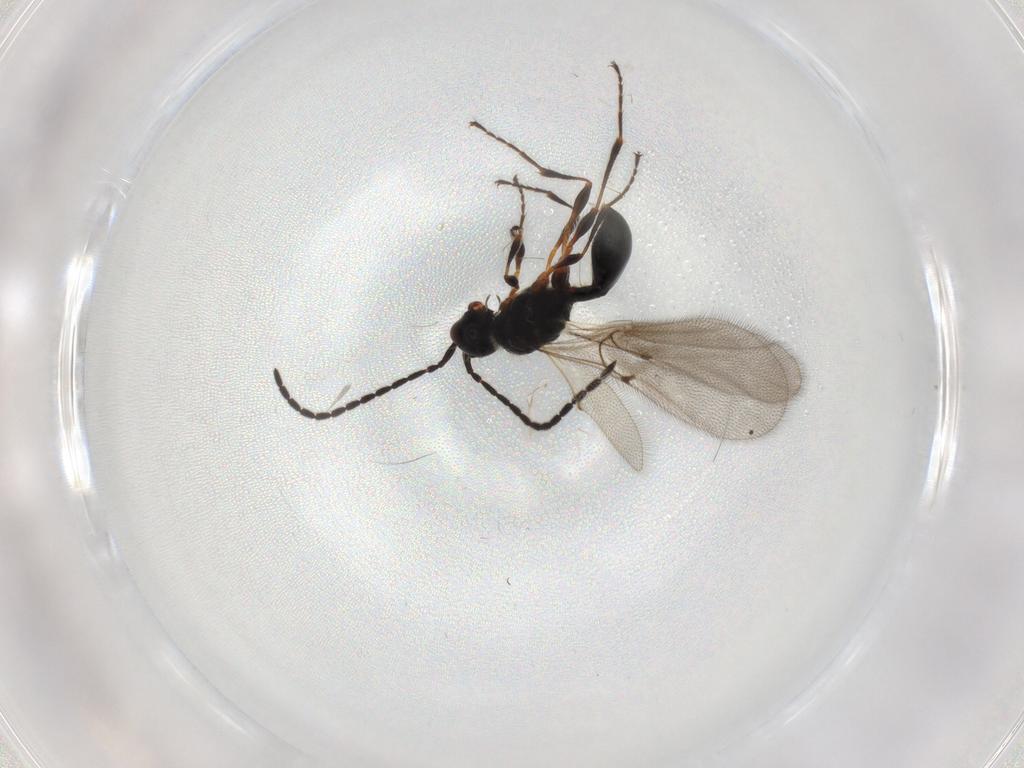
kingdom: Animalia
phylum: Arthropoda
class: Insecta
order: Hymenoptera
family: Diapriidae
